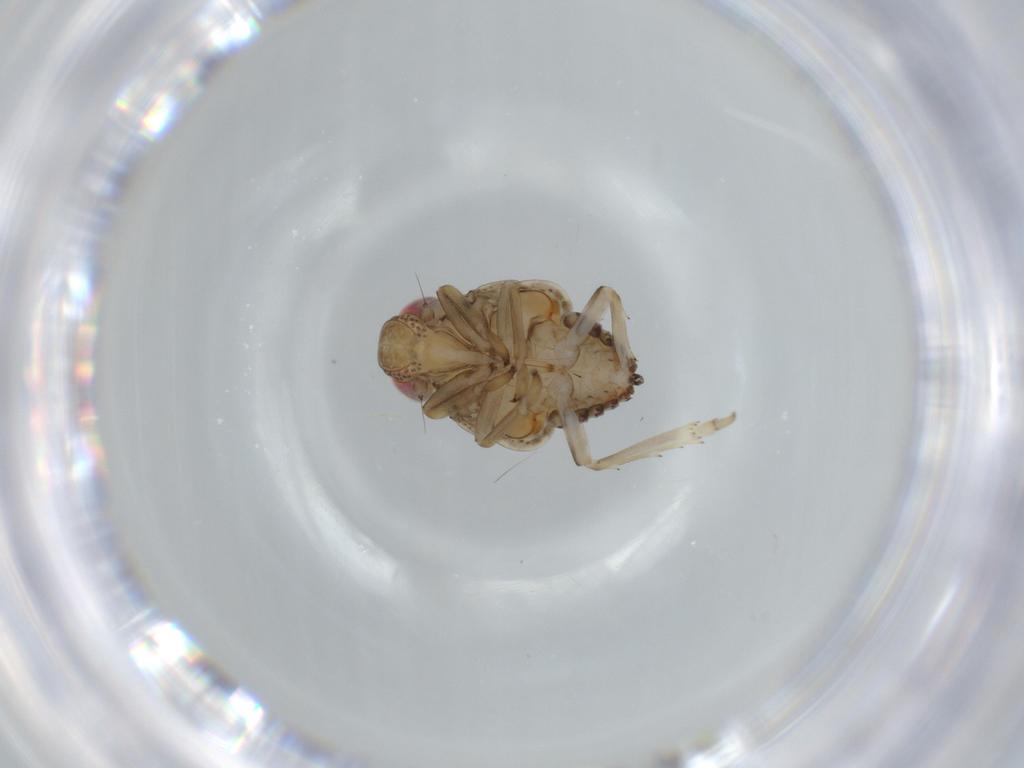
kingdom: Animalia
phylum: Arthropoda
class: Insecta
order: Hemiptera
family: Issidae
